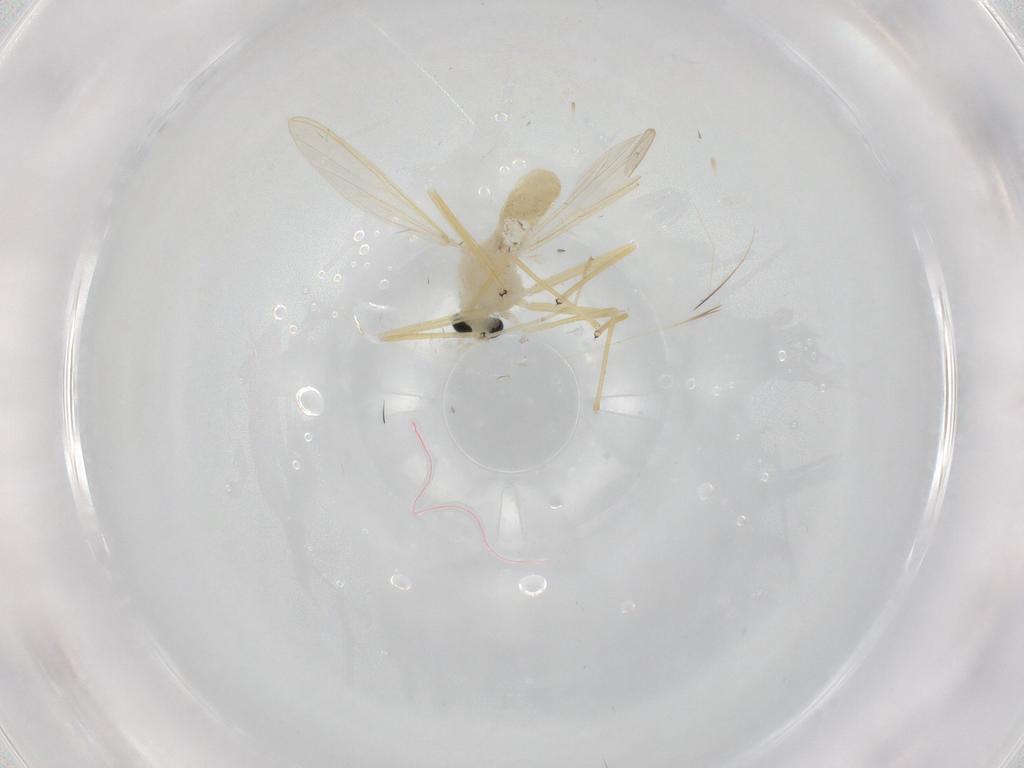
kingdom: Animalia
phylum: Arthropoda
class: Insecta
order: Diptera
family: Chironomidae
